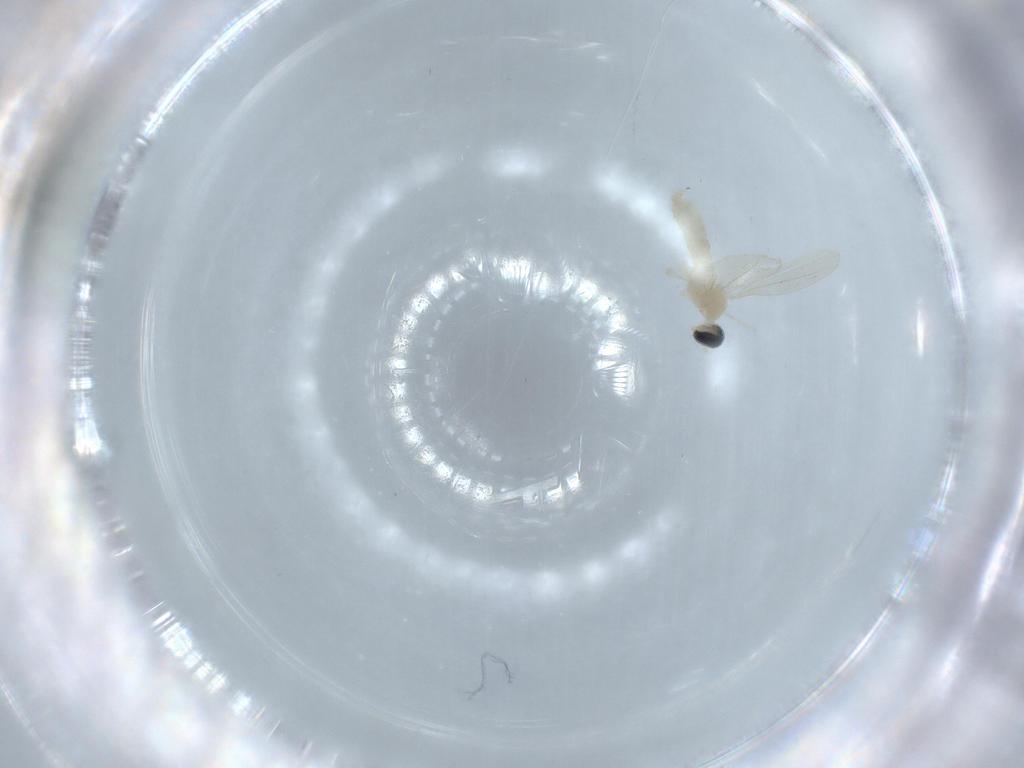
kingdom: Animalia
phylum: Arthropoda
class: Insecta
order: Diptera
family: Cecidomyiidae
